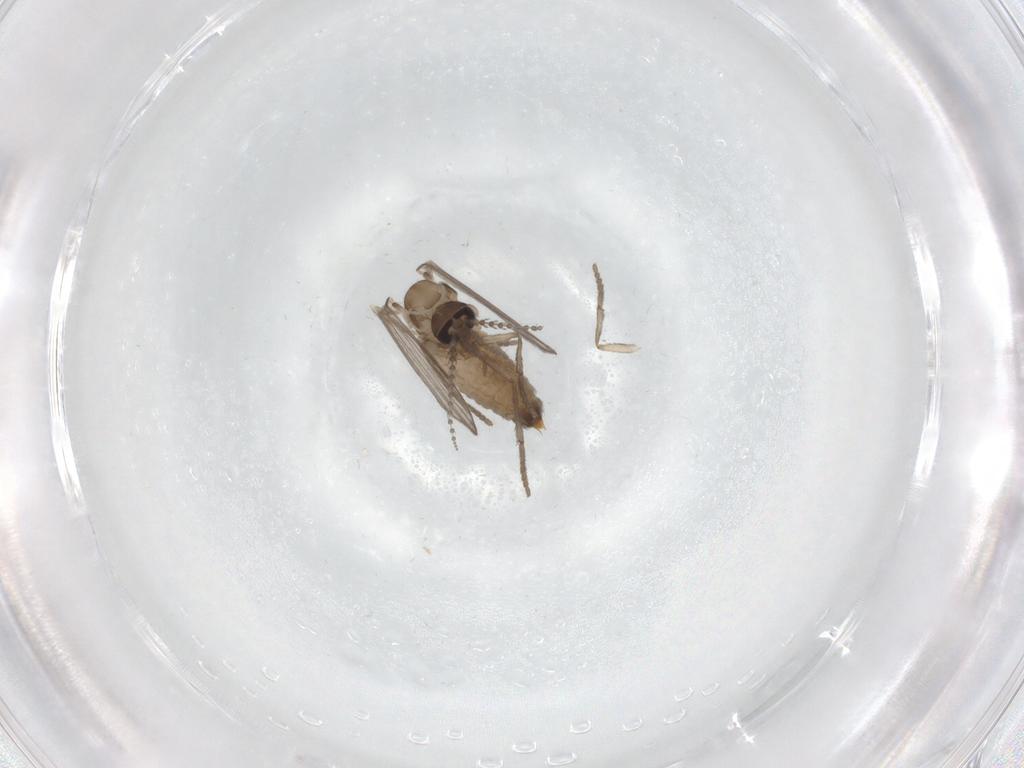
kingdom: Animalia
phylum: Arthropoda
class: Insecta
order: Diptera
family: Psychodidae
